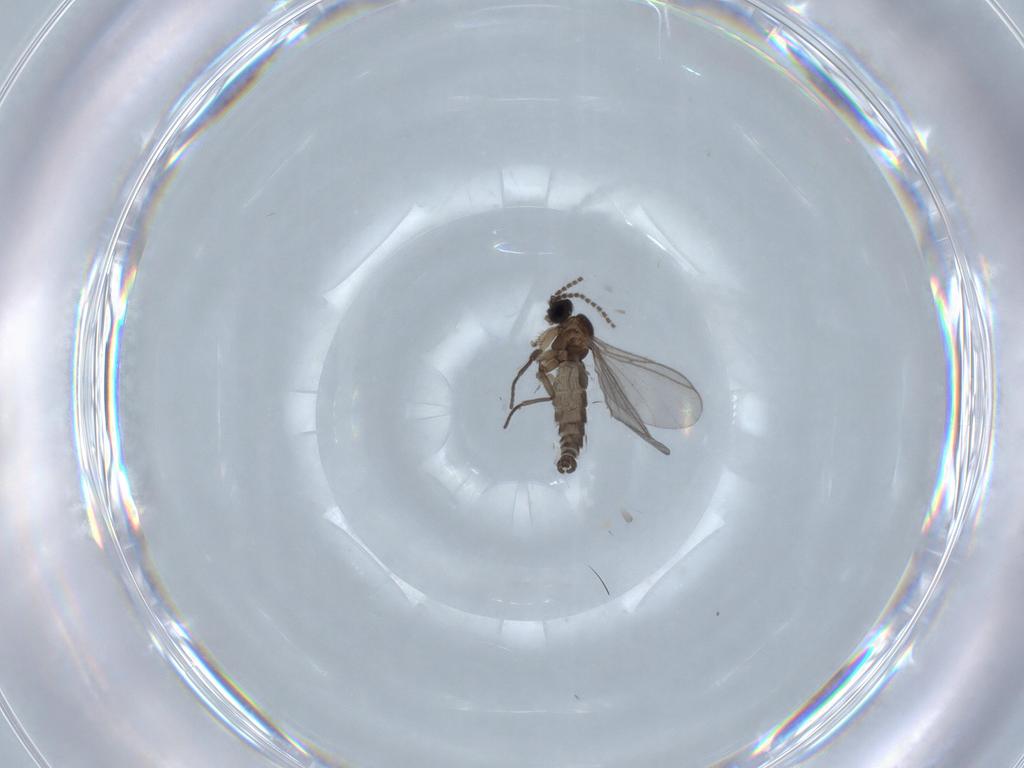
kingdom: Animalia
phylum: Arthropoda
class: Insecta
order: Diptera
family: Chironomidae
